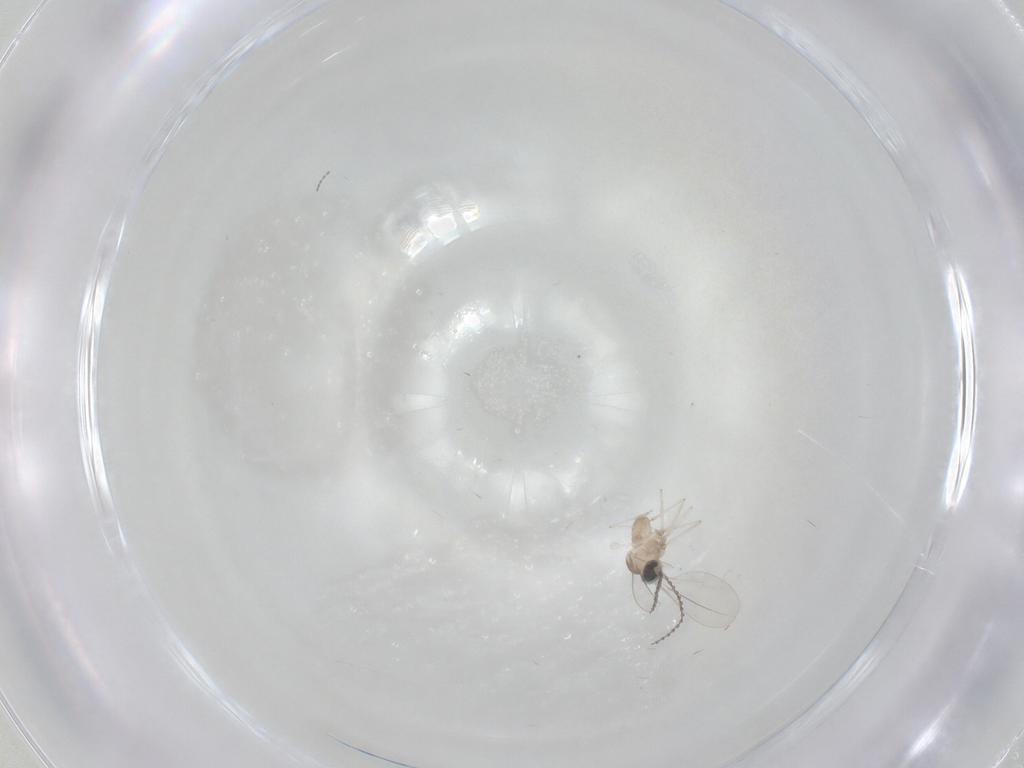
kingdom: Animalia
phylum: Arthropoda
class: Insecta
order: Diptera
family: Cecidomyiidae
